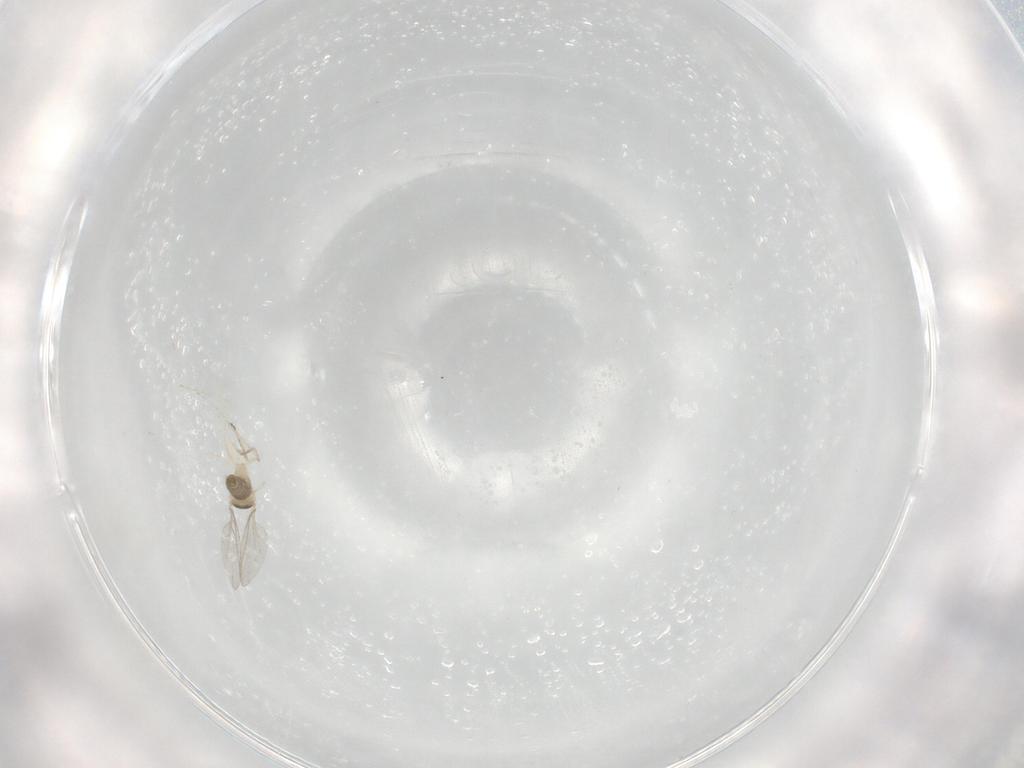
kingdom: Animalia
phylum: Arthropoda
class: Insecta
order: Diptera
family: Cecidomyiidae
